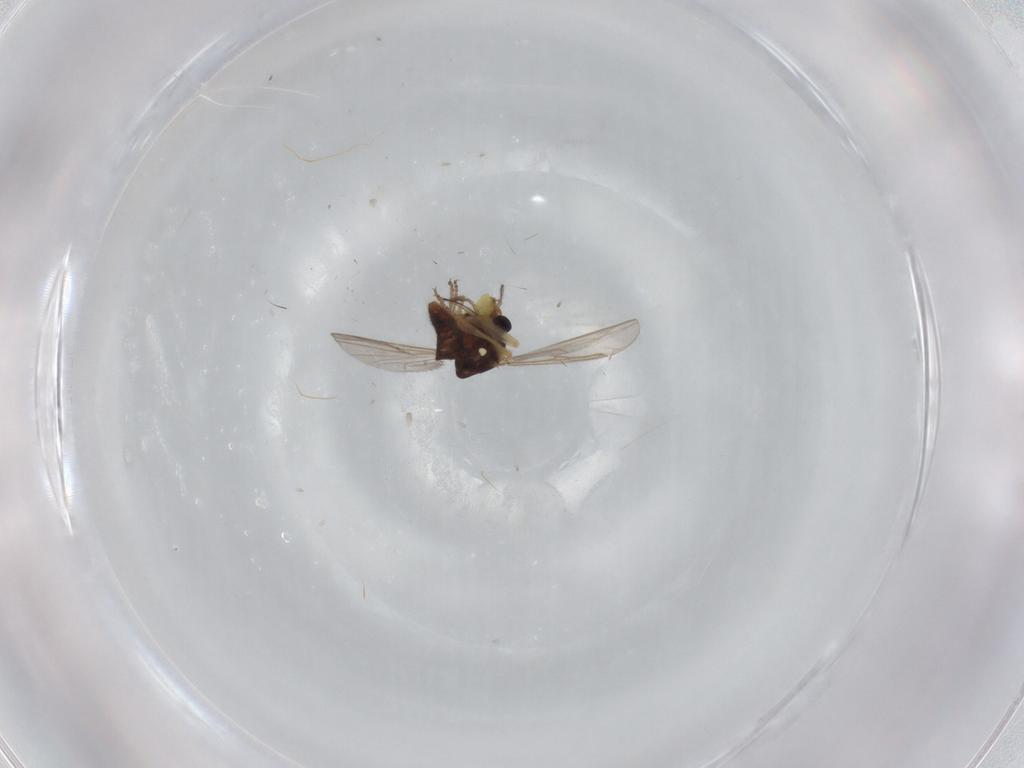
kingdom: Animalia
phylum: Arthropoda
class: Insecta
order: Diptera
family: Ceratopogonidae
